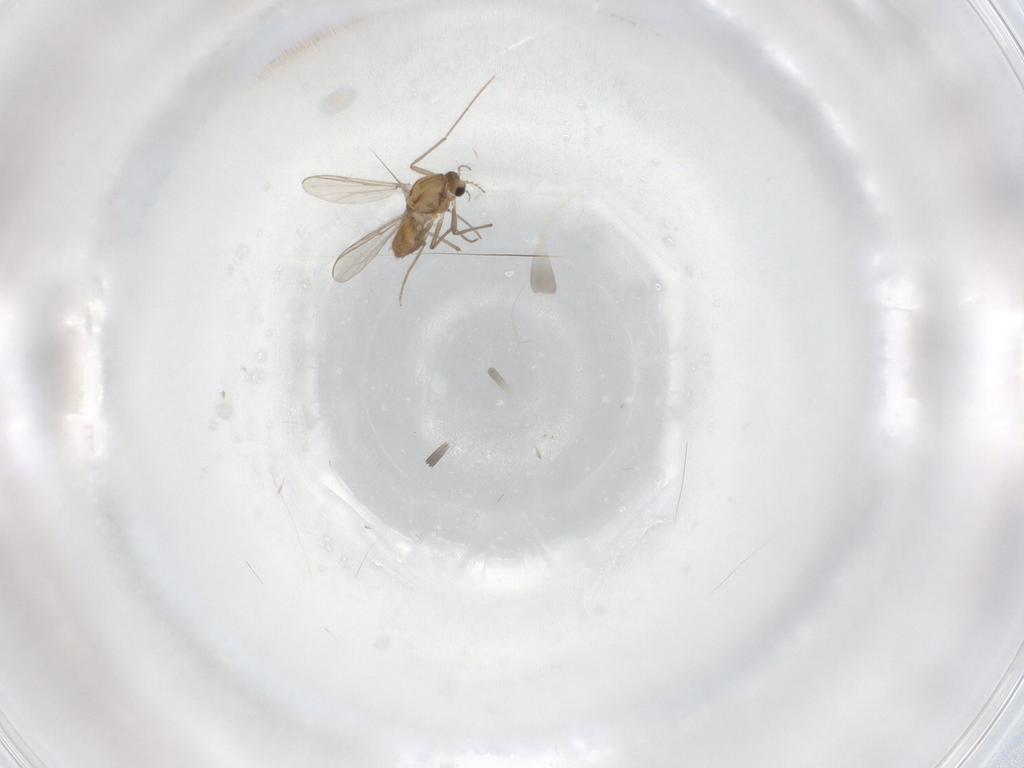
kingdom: Animalia
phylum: Arthropoda
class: Insecta
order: Diptera
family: Chironomidae
